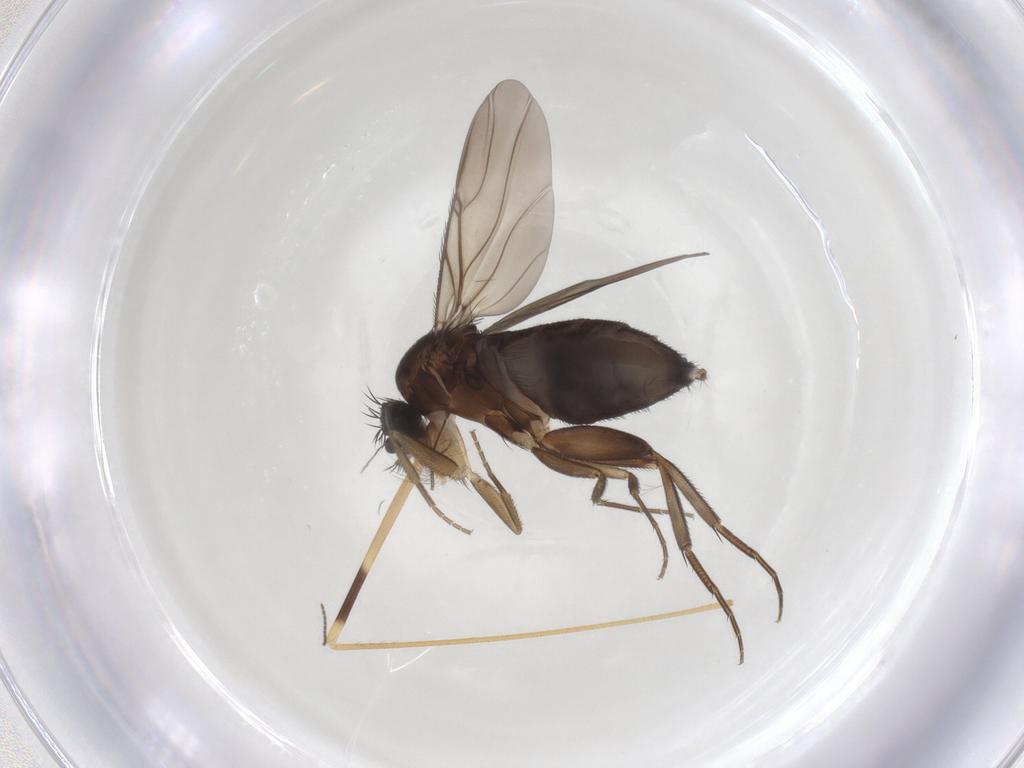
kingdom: Animalia
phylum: Arthropoda
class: Insecta
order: Diptera
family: Phoridae
